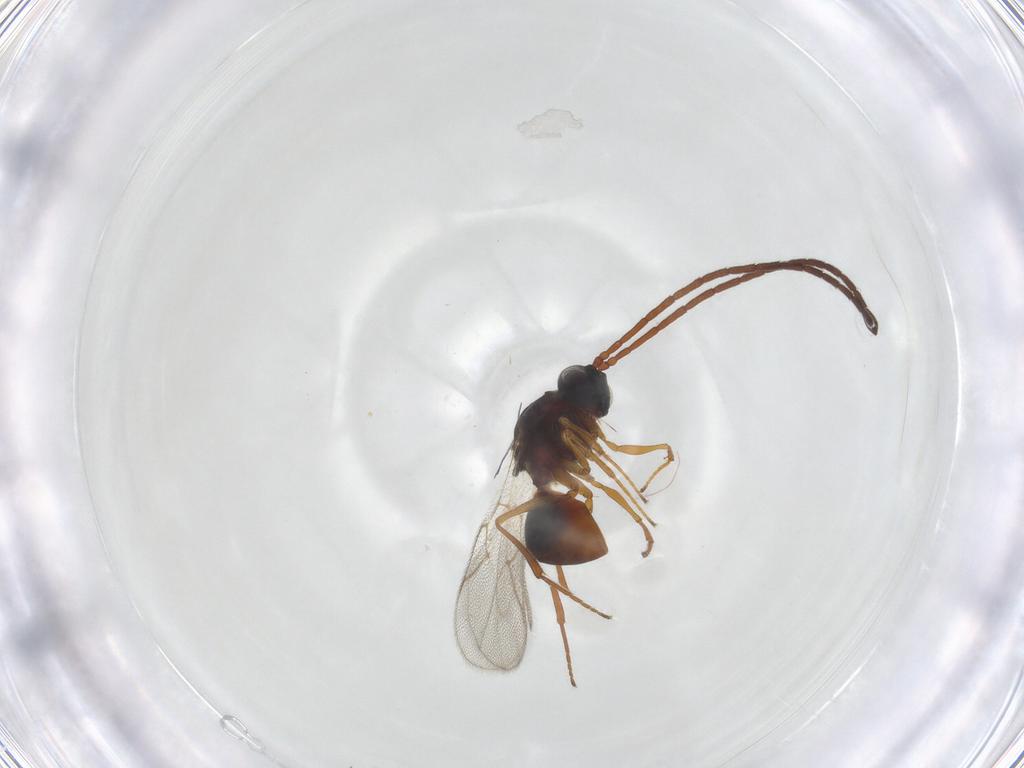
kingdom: Animalia
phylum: Arthropoda
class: Insecta
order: Hymenoptera
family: Figitidae
